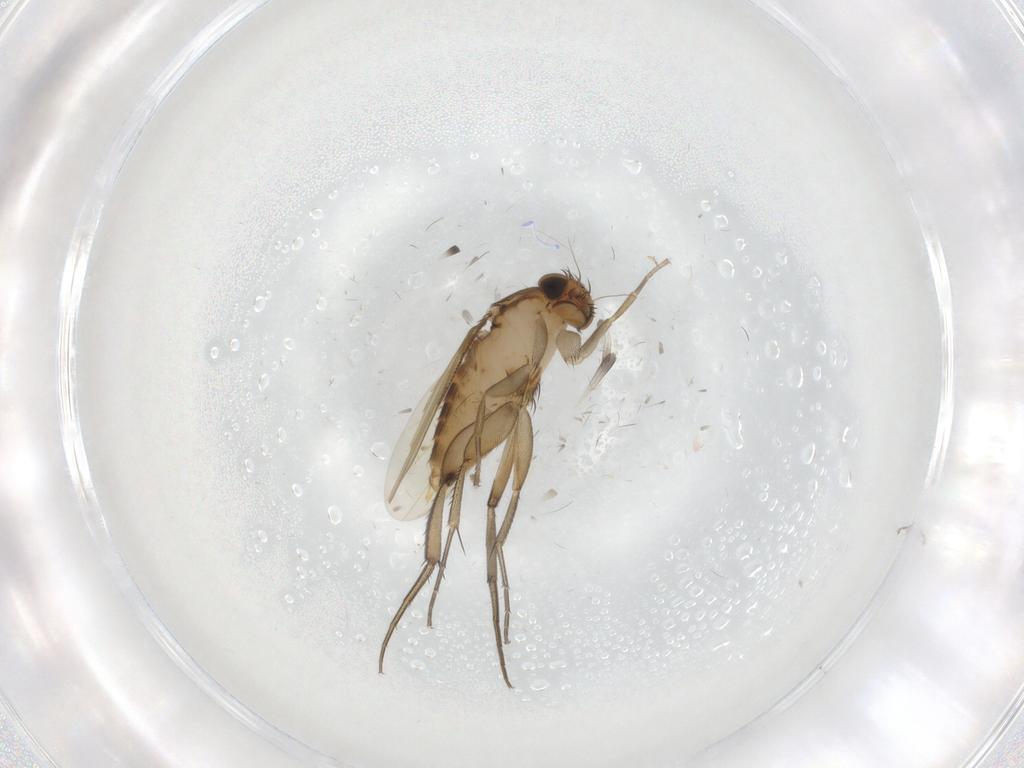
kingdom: Animalia
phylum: Arthropoda
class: Insecta
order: Diptera
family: Phoridae
